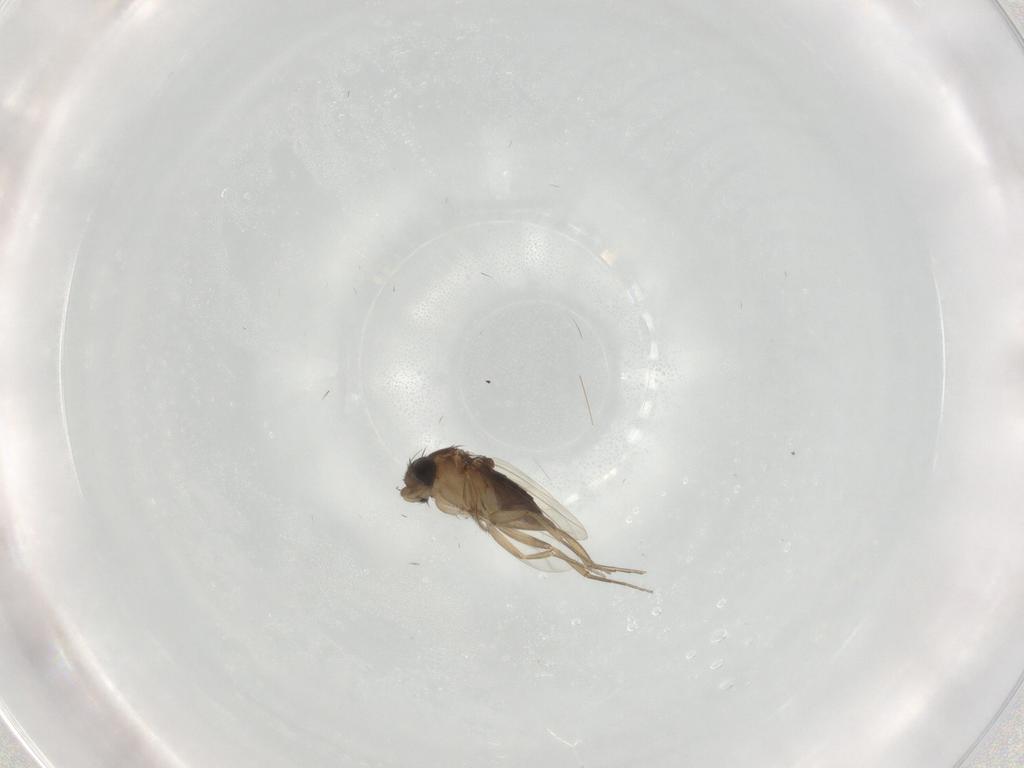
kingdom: Animalia
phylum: Arthropoda
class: Insecta
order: Diptera
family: Phoridae
